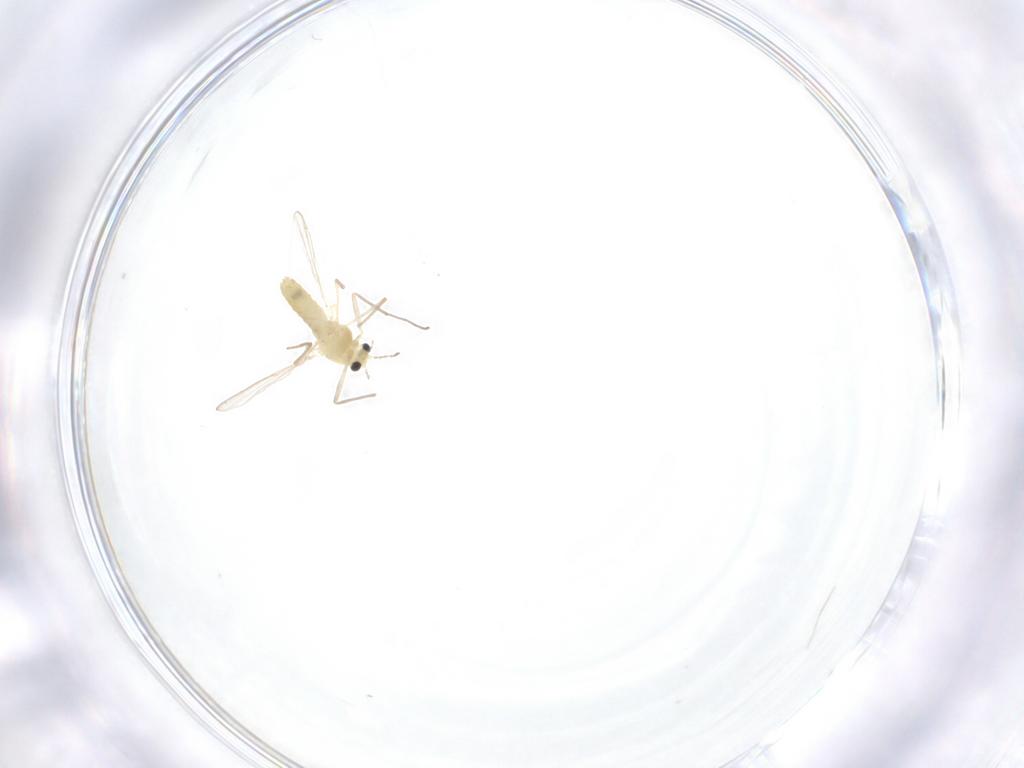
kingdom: Animalia
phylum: Arthropoda
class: Insecta
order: Diptera
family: Chironomidae
